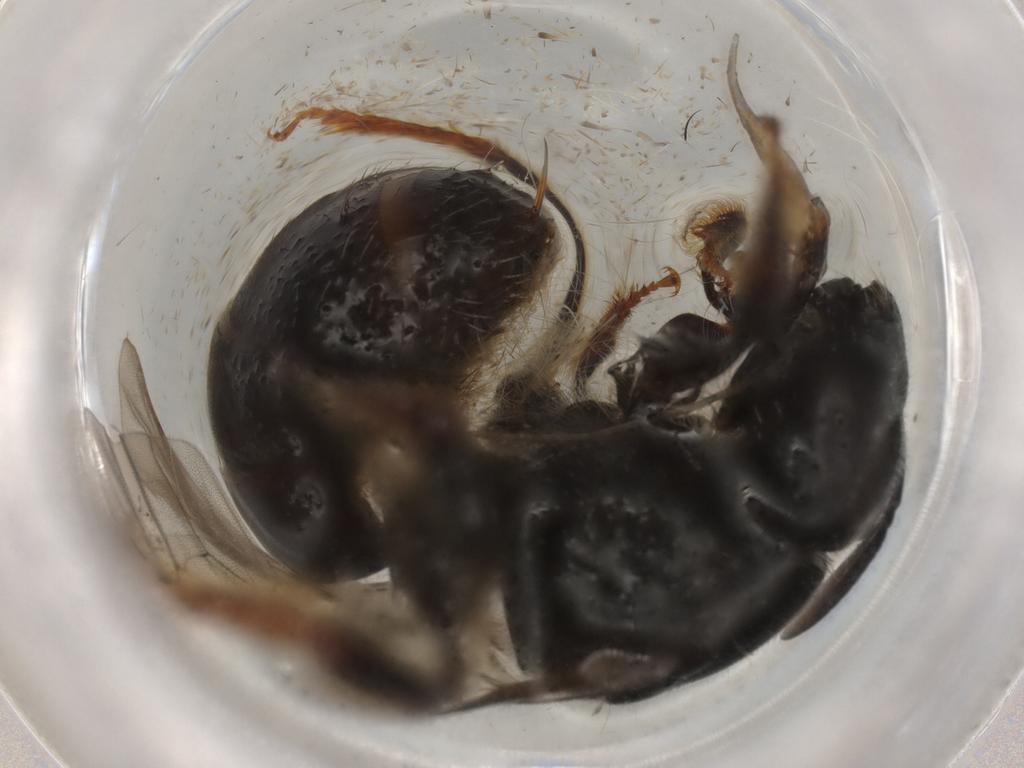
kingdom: Animalia
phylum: Arthropoda
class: Insecta
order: Hymenoptera
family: Halictidae
